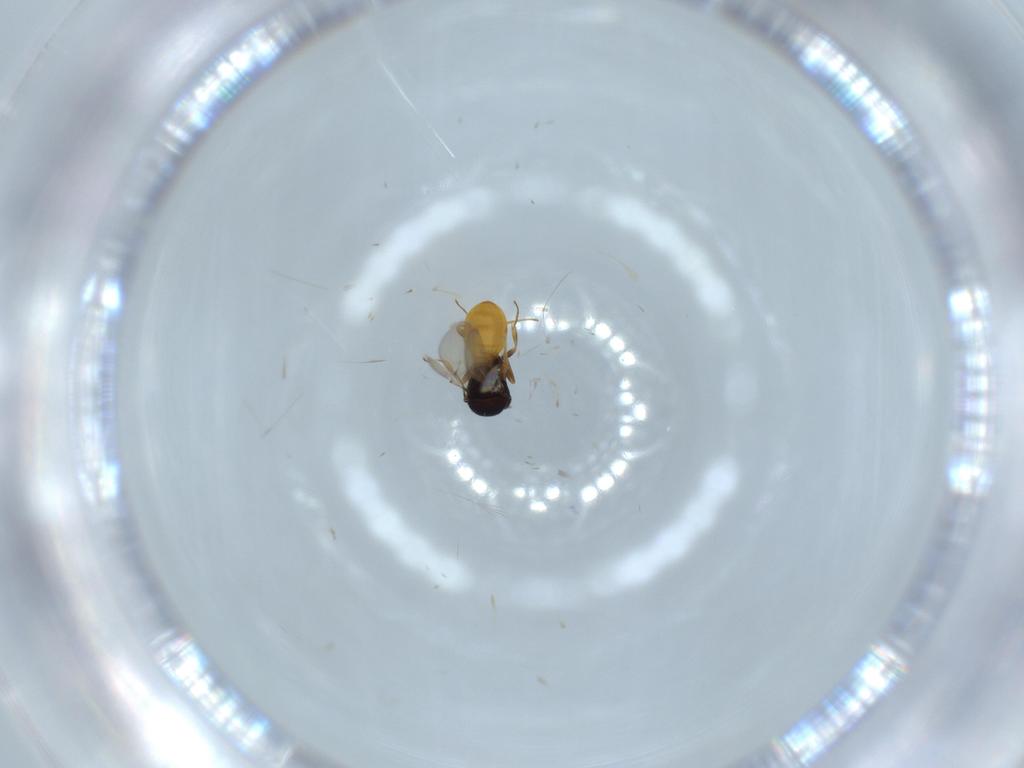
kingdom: Animalia
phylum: Arthropoda
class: Insecta
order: Hymenoptera
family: Scelionidae
